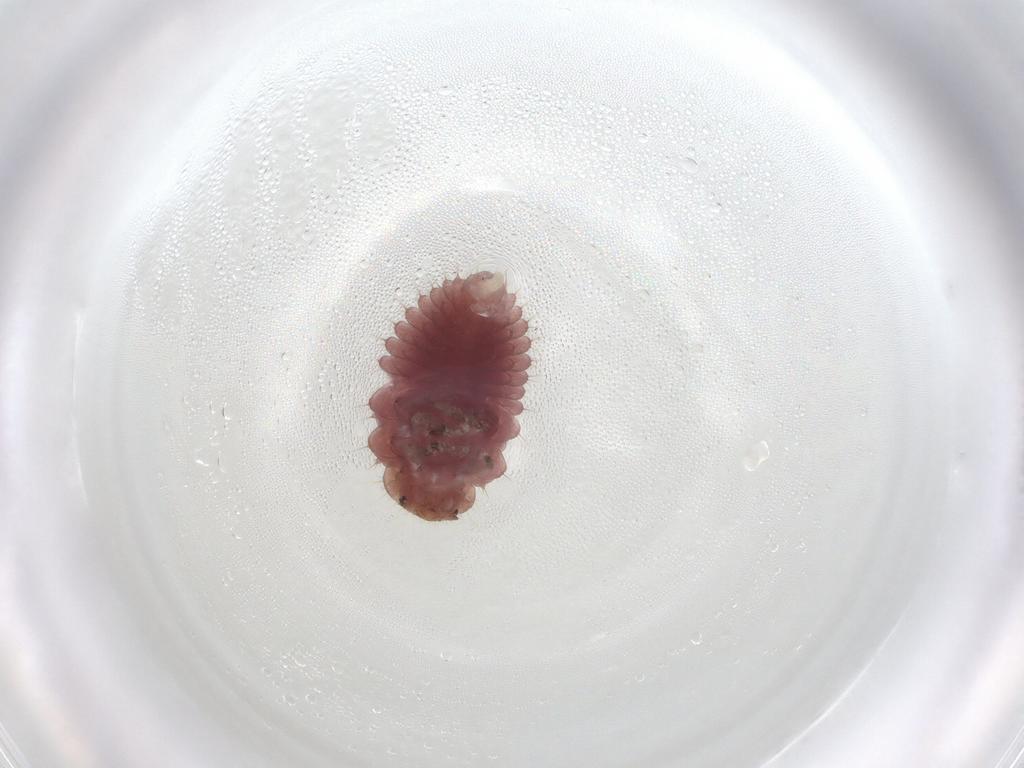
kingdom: Animalia
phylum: Arthropoda
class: Insecta
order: Coleoptera
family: Coccinellidae
